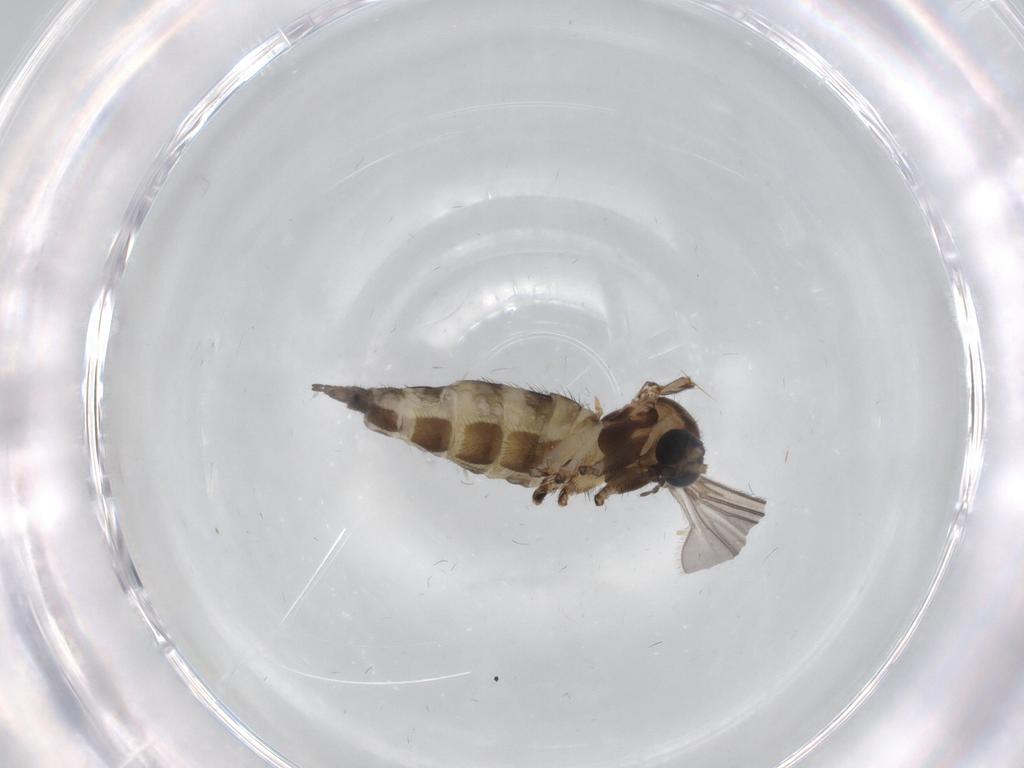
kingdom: Animalia
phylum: Arthropoda
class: Insecta
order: Diptera
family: Sciaridae
